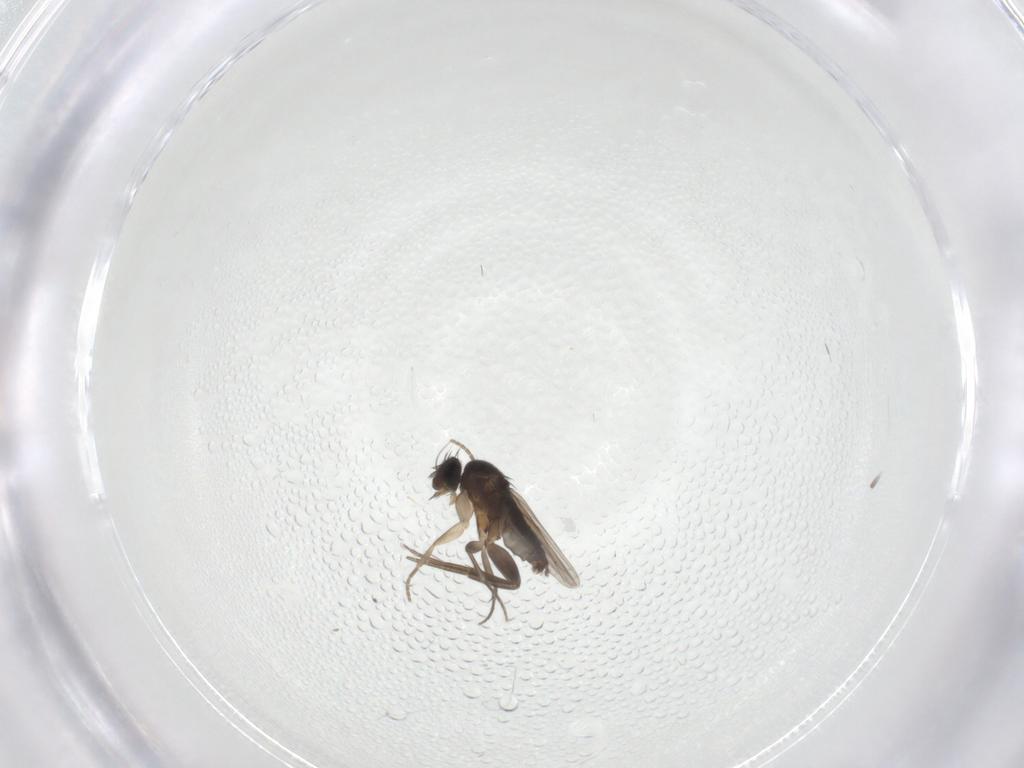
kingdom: Animalia
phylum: Arthropoda
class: Insecta
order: Diptera
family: Phoridae
